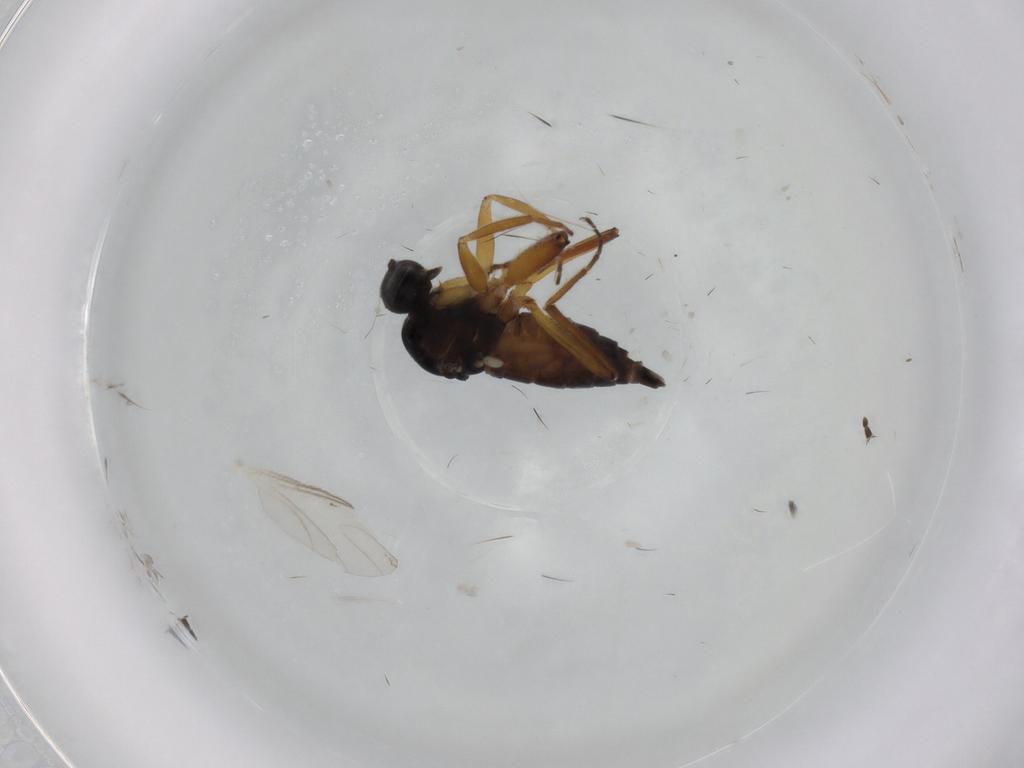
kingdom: Animalia
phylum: Arthropoda
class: Insecta
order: Diptera
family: Hybotidae
